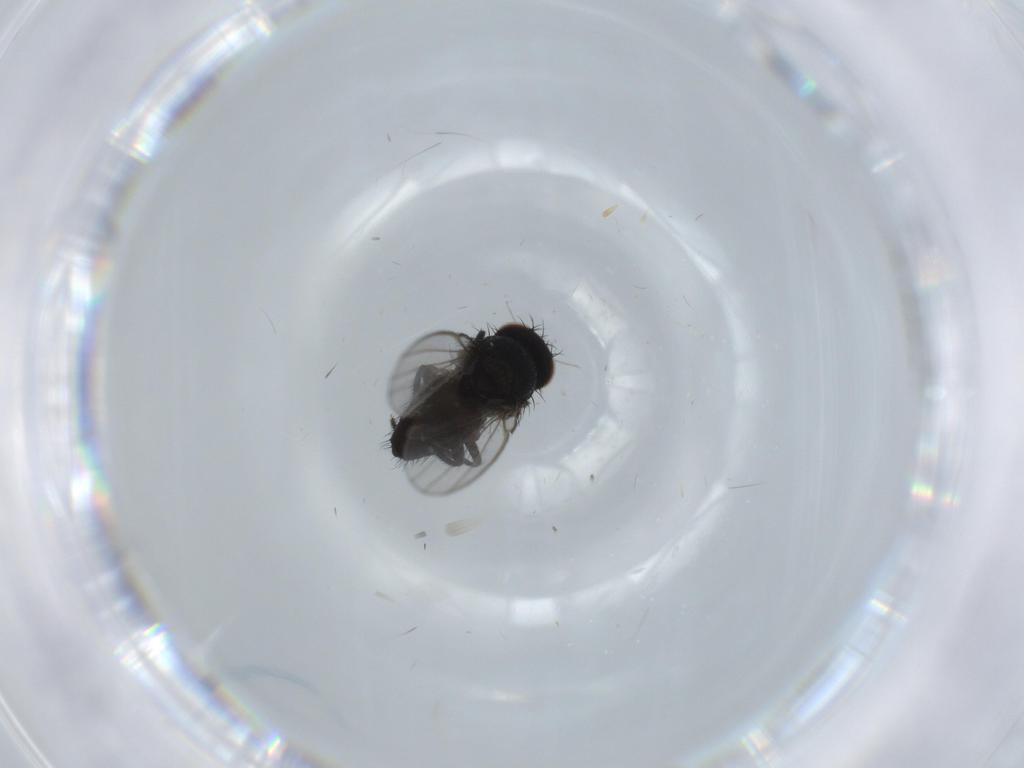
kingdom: Animalia
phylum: Arthropoda
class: Insecta
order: Diptera
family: Milichiidae
